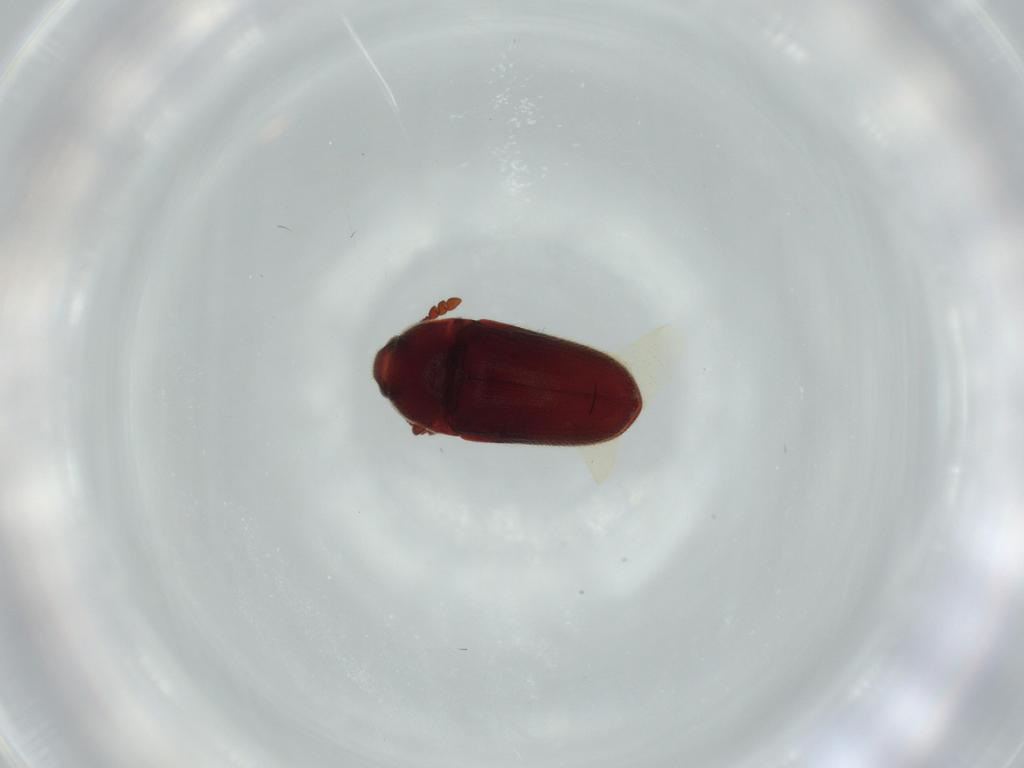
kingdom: Animalia
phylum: Arthropoda
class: Insecta
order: Coleoptera
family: Throscidae
